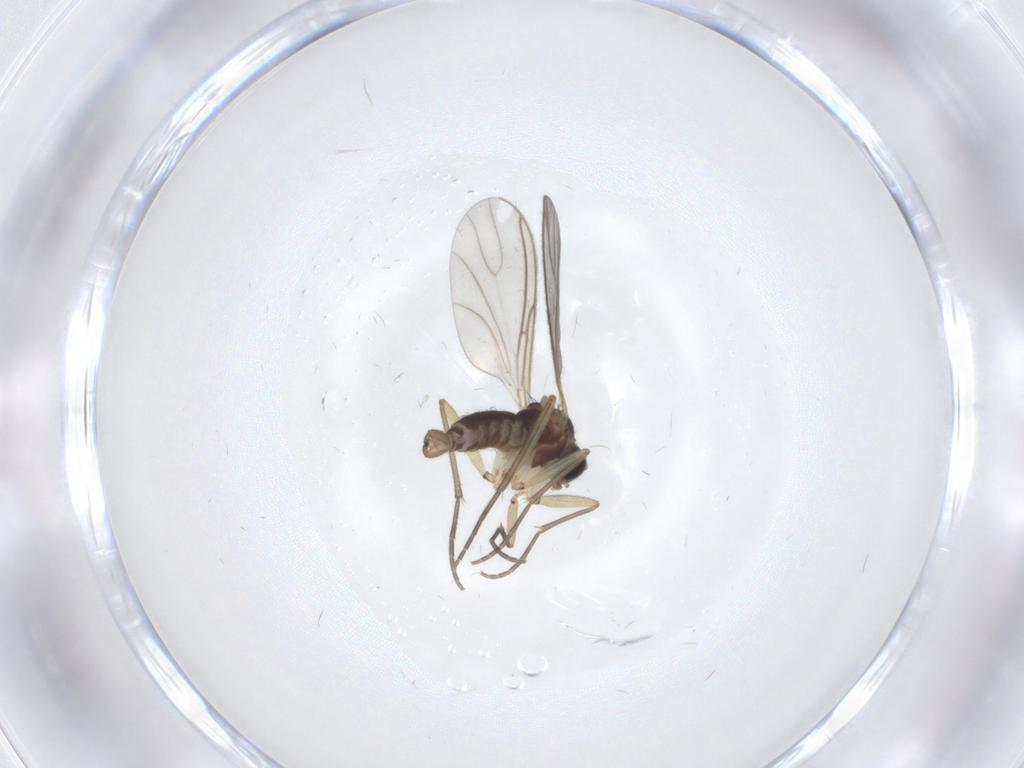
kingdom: Animalia
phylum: Arthropoda
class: Insecta
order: Diptera
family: Sciaridae
